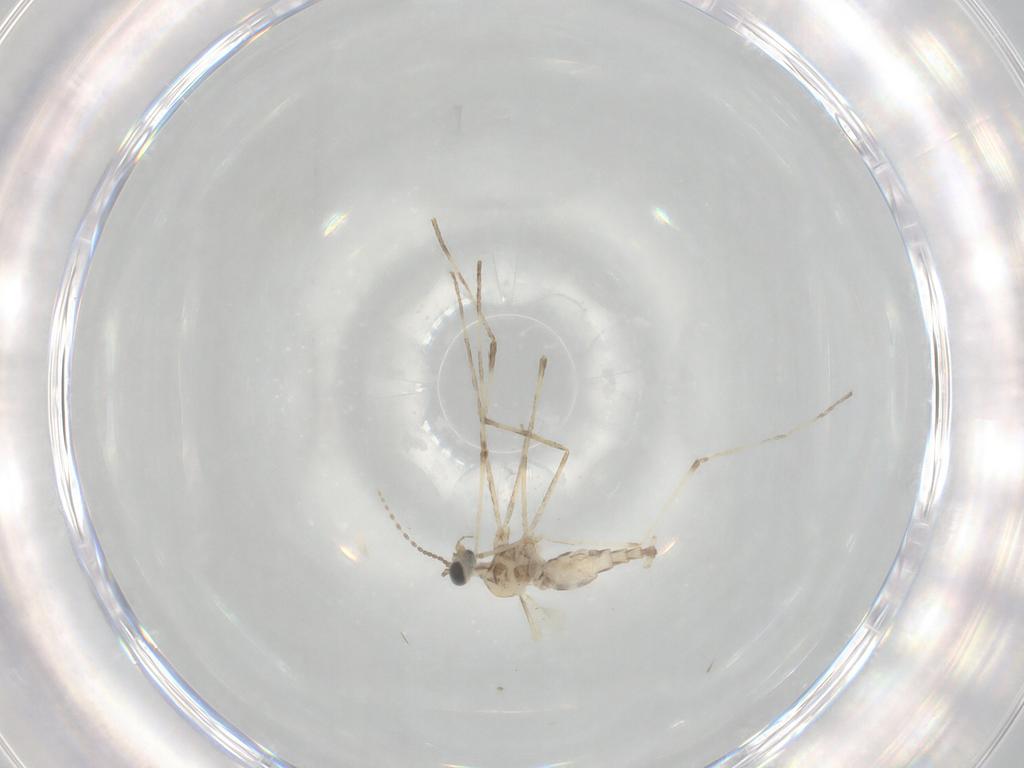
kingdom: Animalia
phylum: Arthropoda
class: Insecta
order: Diptera
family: Cecidomyiidae
